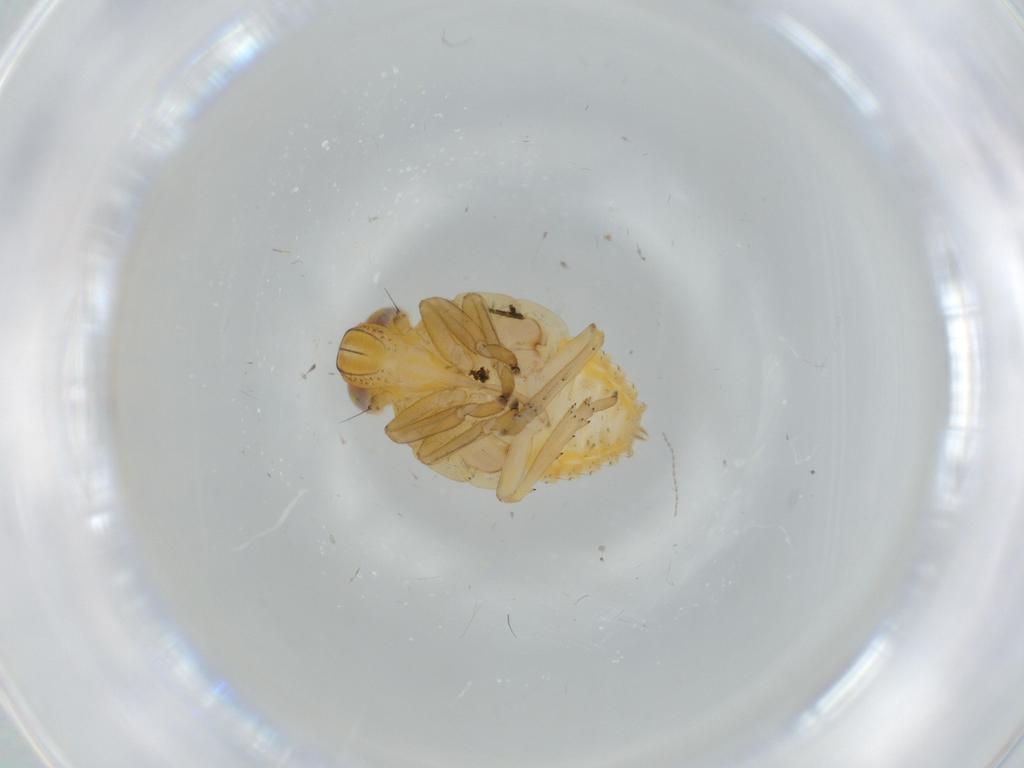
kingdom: Animalia
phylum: Arthropoda
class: Insecta
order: Hemiptera
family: Issidae
